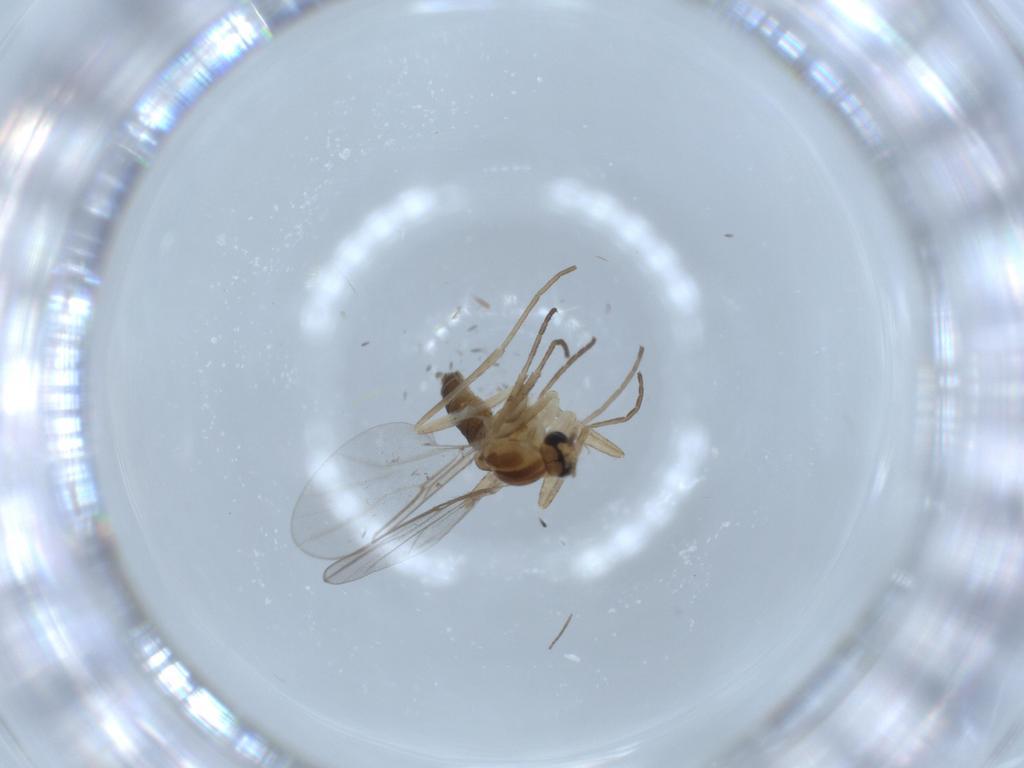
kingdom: Animalia
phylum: Arthropoda
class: Insecta
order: Diptera
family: Cecidomyiidae
